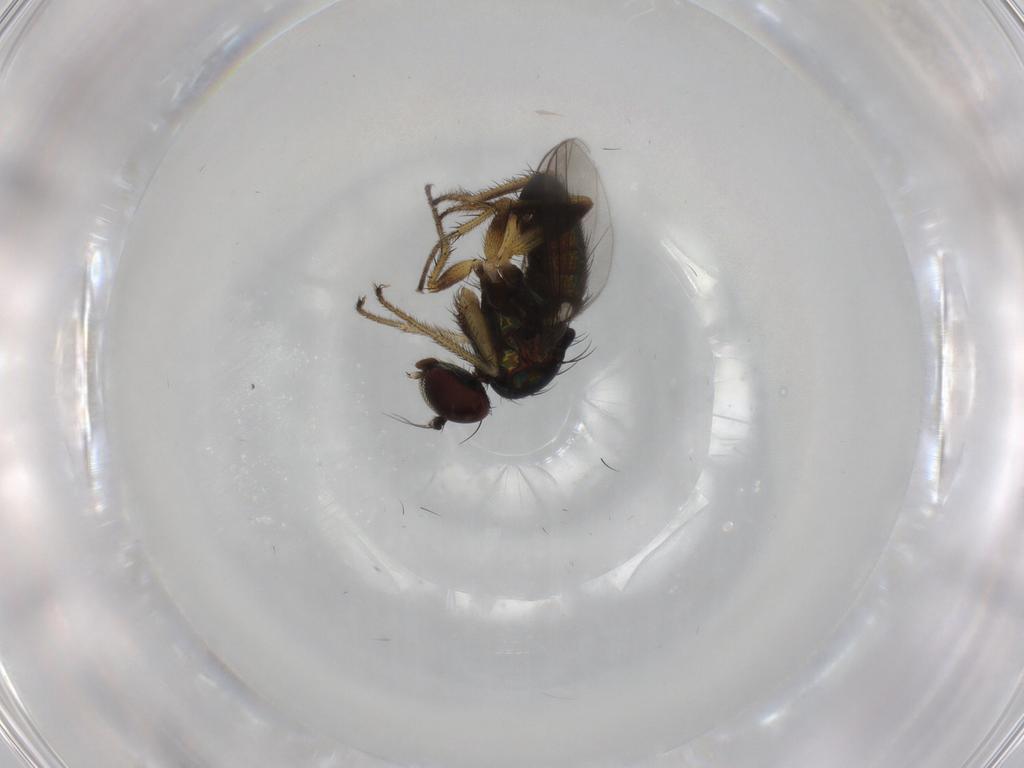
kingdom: Animalia
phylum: Arthropoda
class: Insecta
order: Diptera
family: Dolichopodidae
